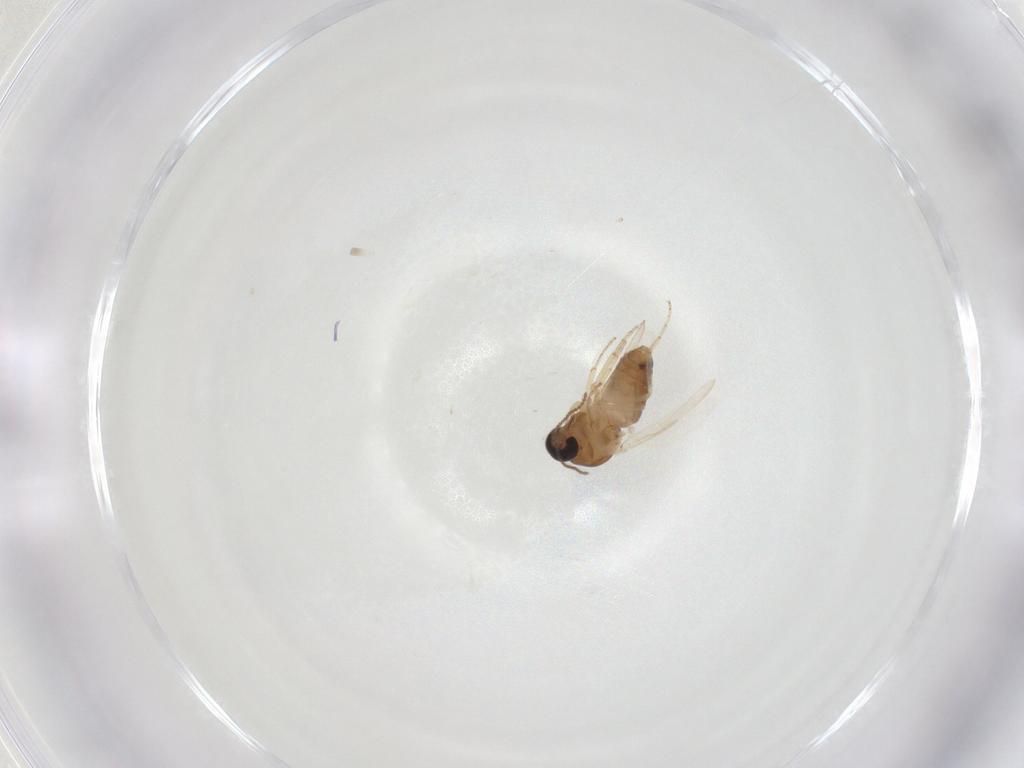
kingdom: Animalia
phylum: Arthropoda
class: Insecta
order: Diptera
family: Ceratopogonidae
